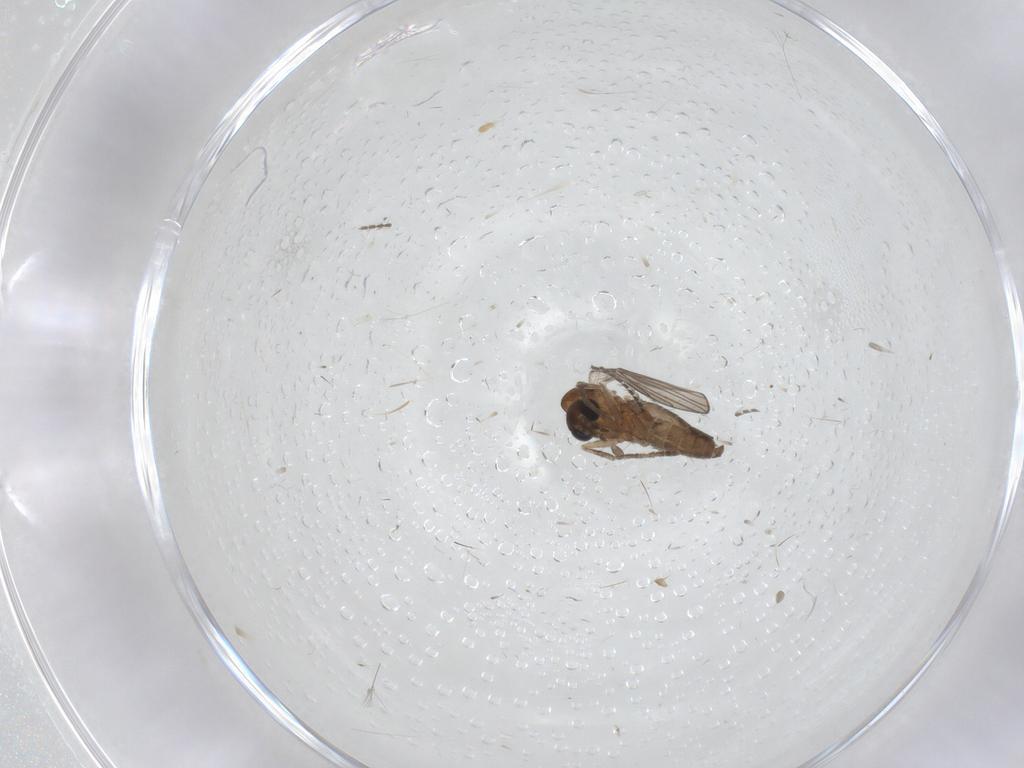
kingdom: Animalia
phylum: Arthropoda
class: Insecta
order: Diptera
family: Psychodidae
